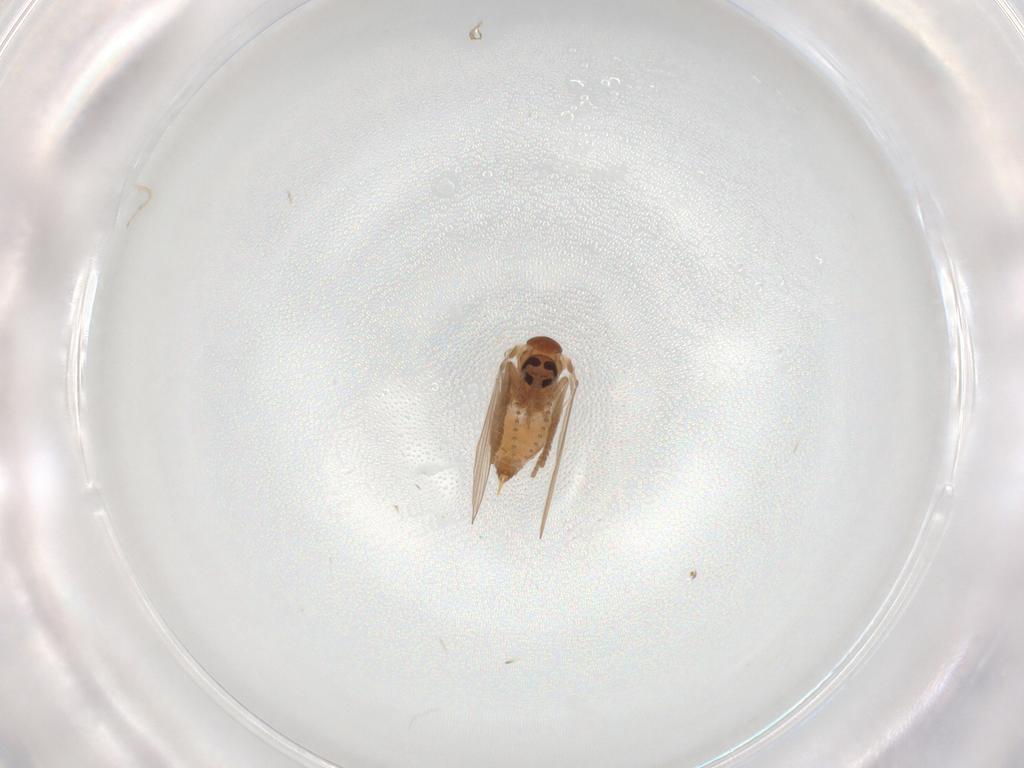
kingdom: Animalia
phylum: Arthropoda
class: Insecta
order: Diptera
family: Psychodidae
